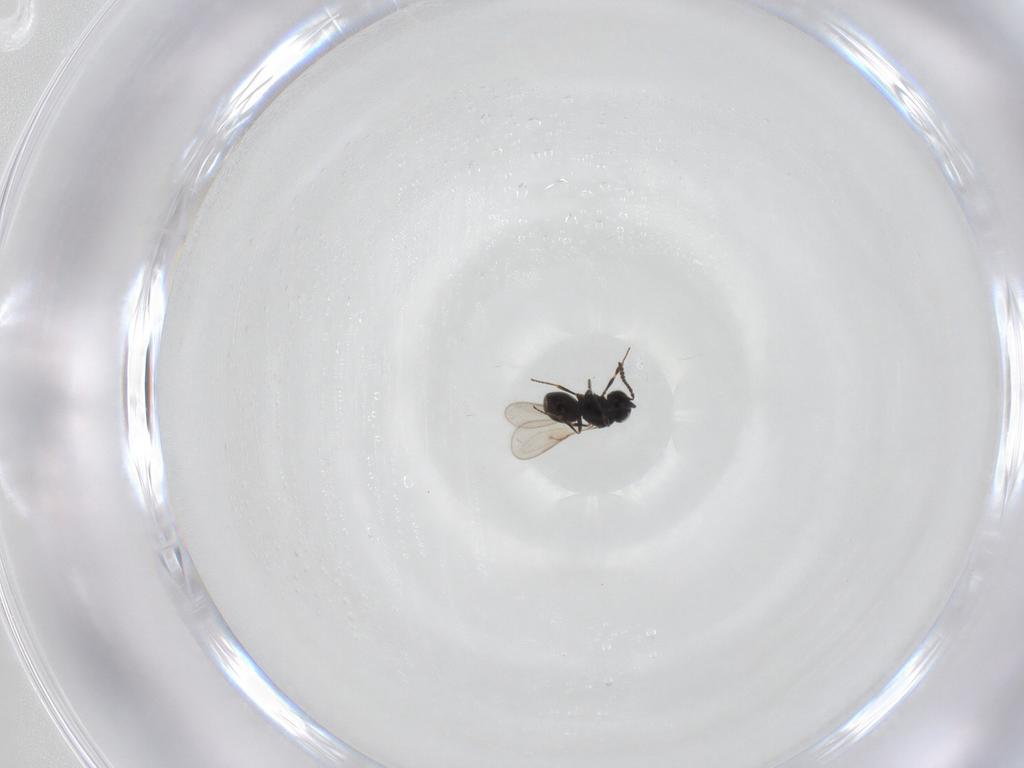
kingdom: Animalia
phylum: Arthropoda
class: Insecta
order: Hymenoptera
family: Scelionidae
